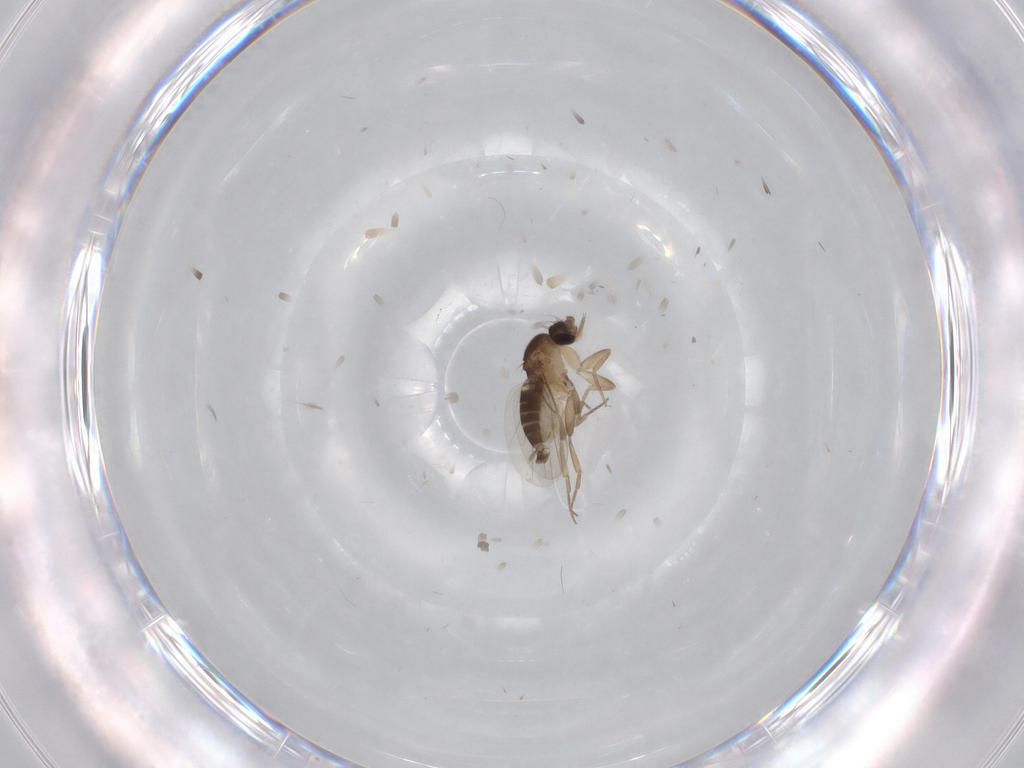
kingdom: Animalia
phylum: Arthropoda
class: Insecta
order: Diptera
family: Phoridae
